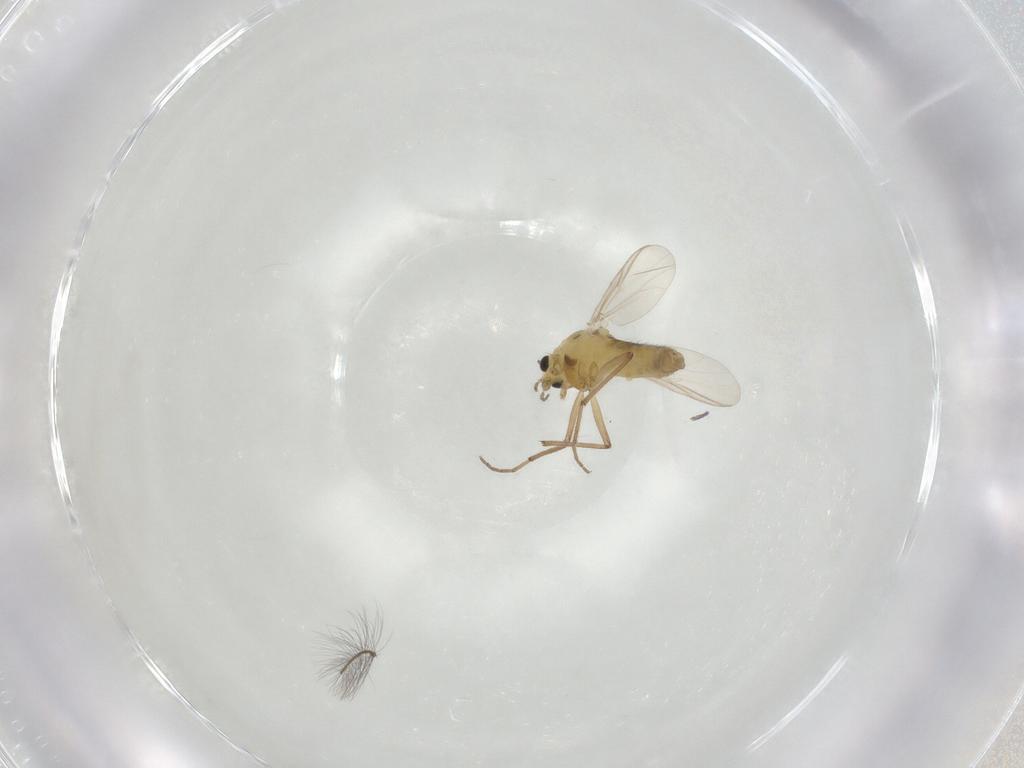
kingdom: Animalia
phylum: Arthropoda
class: Insecta
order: Diptera
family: Chironomidae
